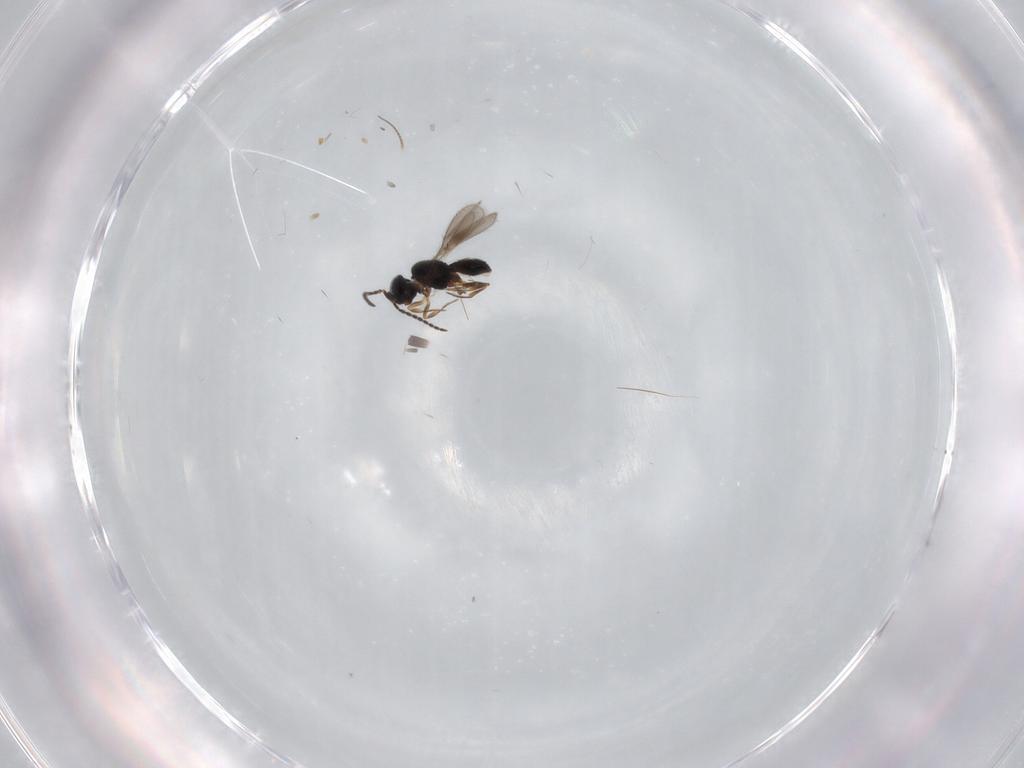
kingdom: Animalia
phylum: Arthropoda
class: Insecta
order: Hymenoptera
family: Scelionidae
